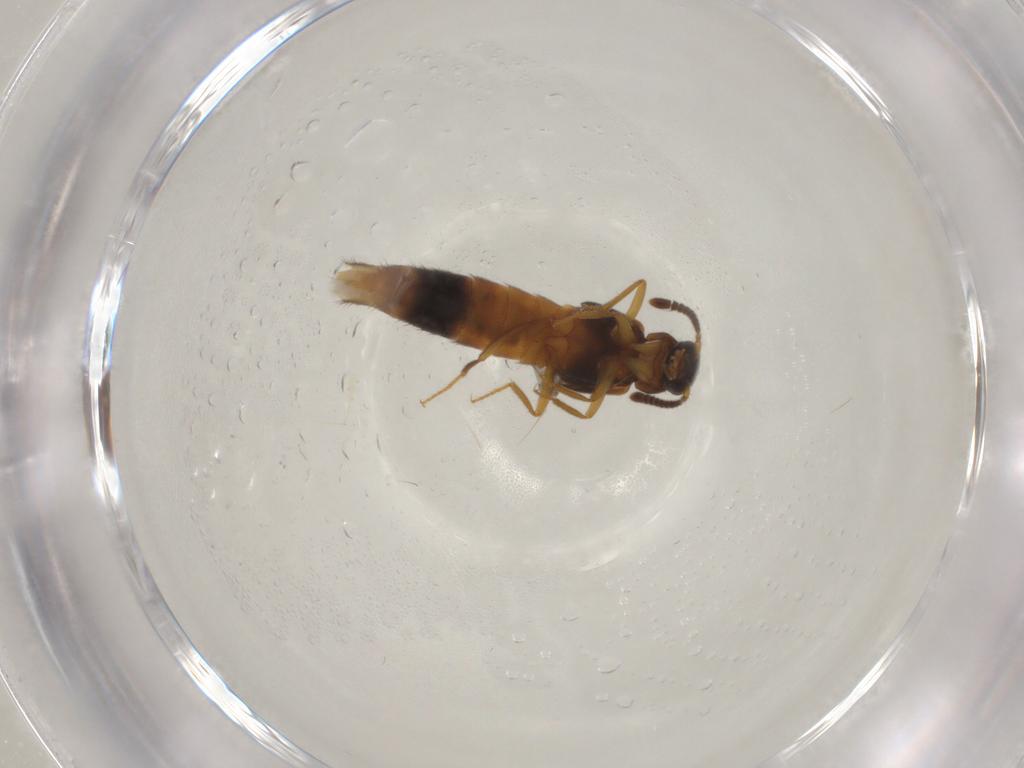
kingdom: Animalia
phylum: Arthropoda
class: Insecta
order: Coleoptera
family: Staphylinidae
